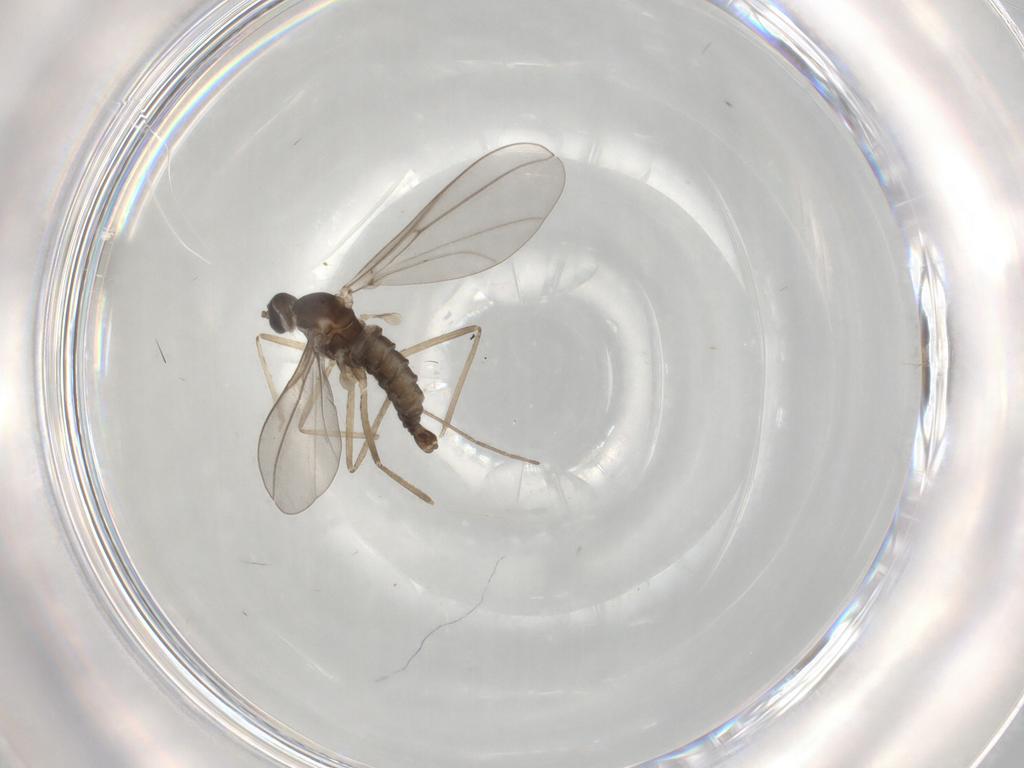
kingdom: Animalia
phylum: Arthropoda
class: Insecta
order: Diptera
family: Cecidomyiidae
